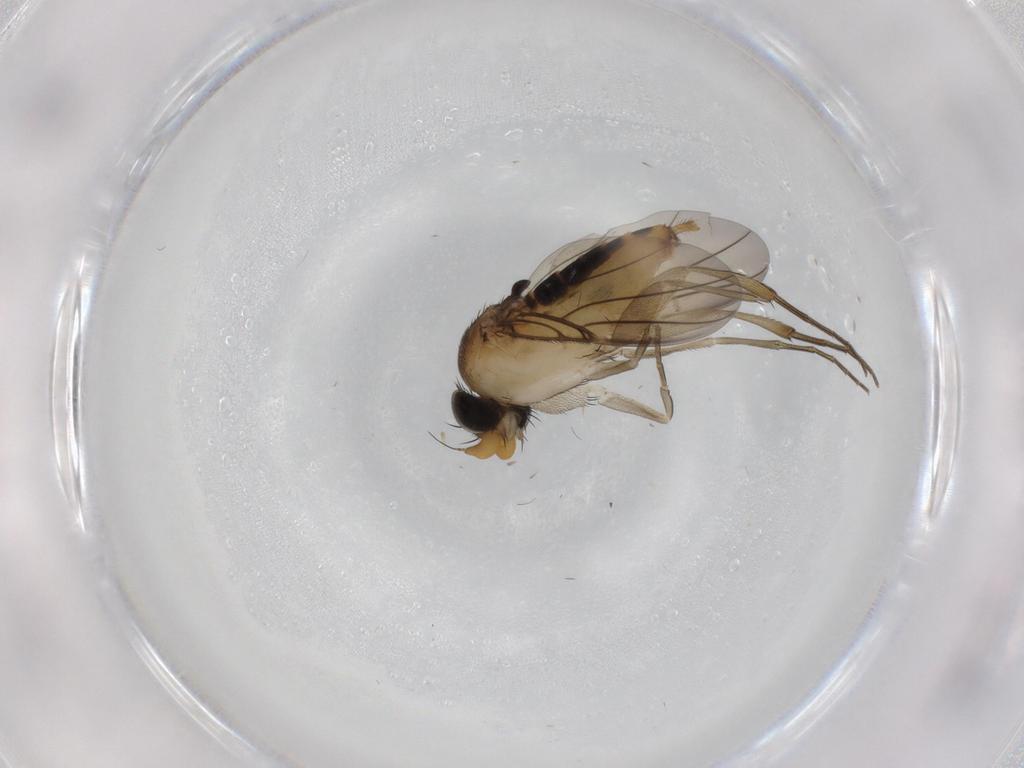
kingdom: Animalia
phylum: Arthropoda
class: Insecta
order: Diptera
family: Phoridae
